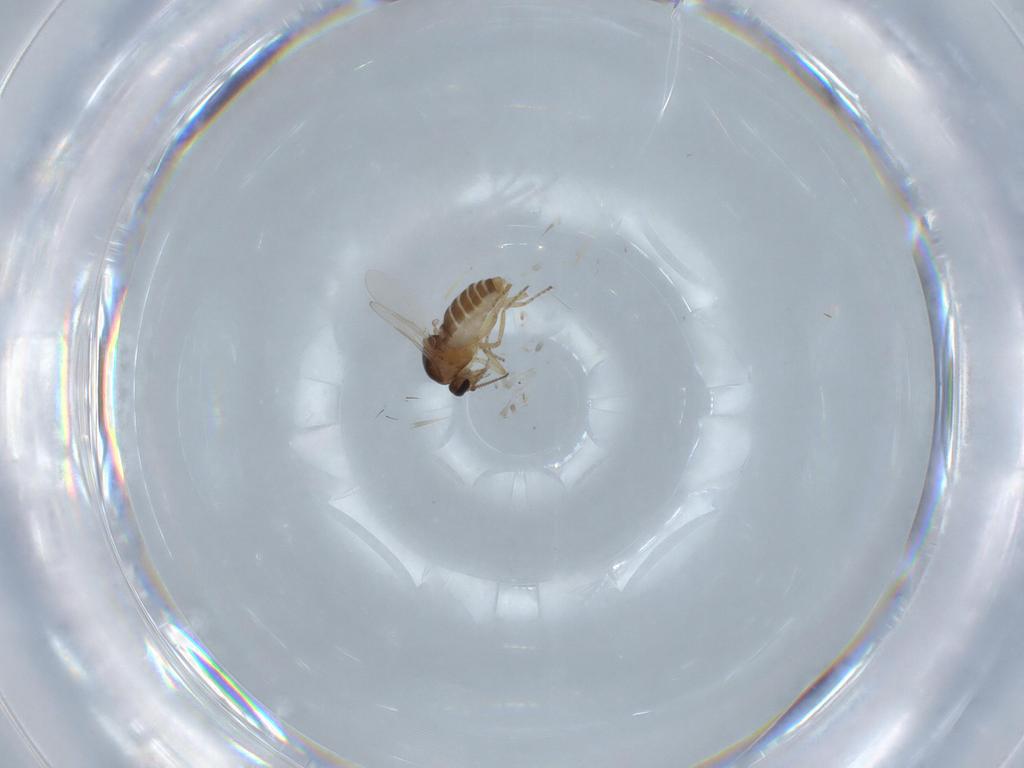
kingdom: Animalia
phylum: Arthropoda
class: Insecta
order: Diptera
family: Ceratopogonidae
